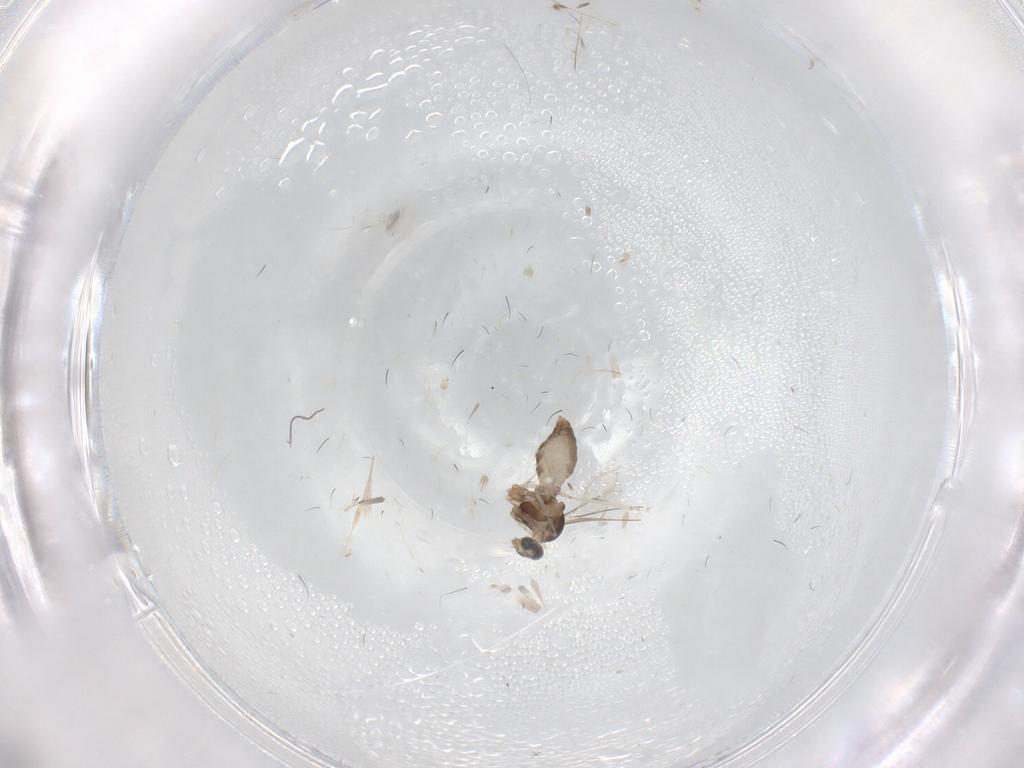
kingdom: Animalia
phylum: Arthropoda
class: Insecta
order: Diptera
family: Cecidomyiidae
